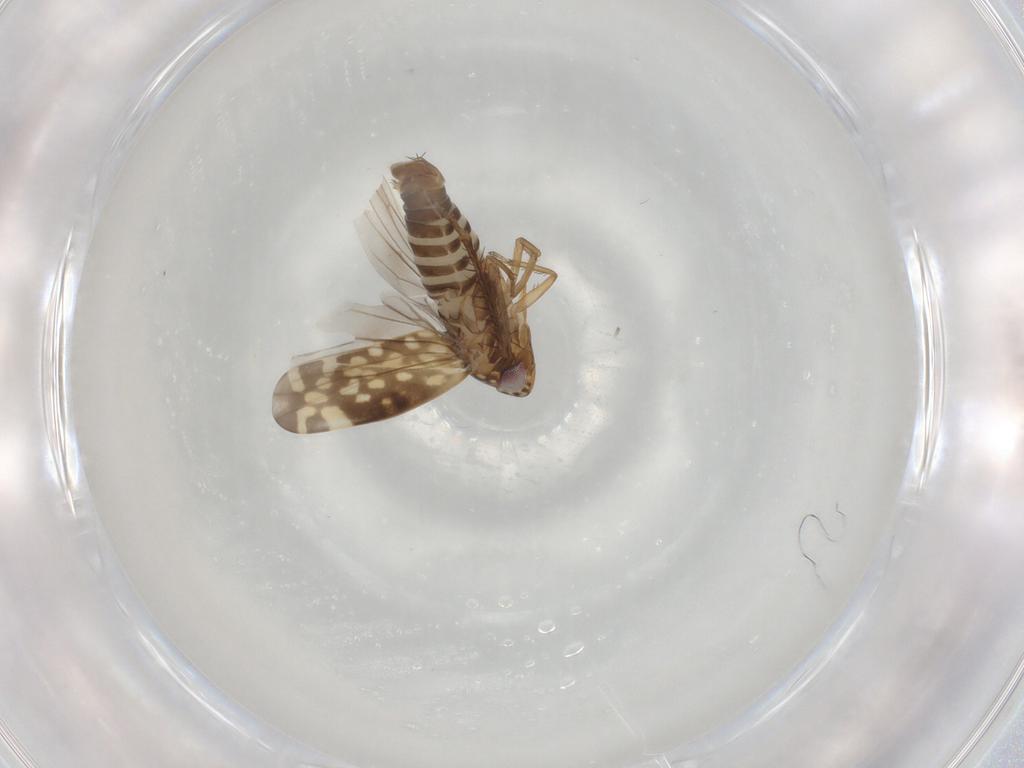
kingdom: Animalia
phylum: Arthropoda
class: Insecta
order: Hemiptera
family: Cicadellidae
